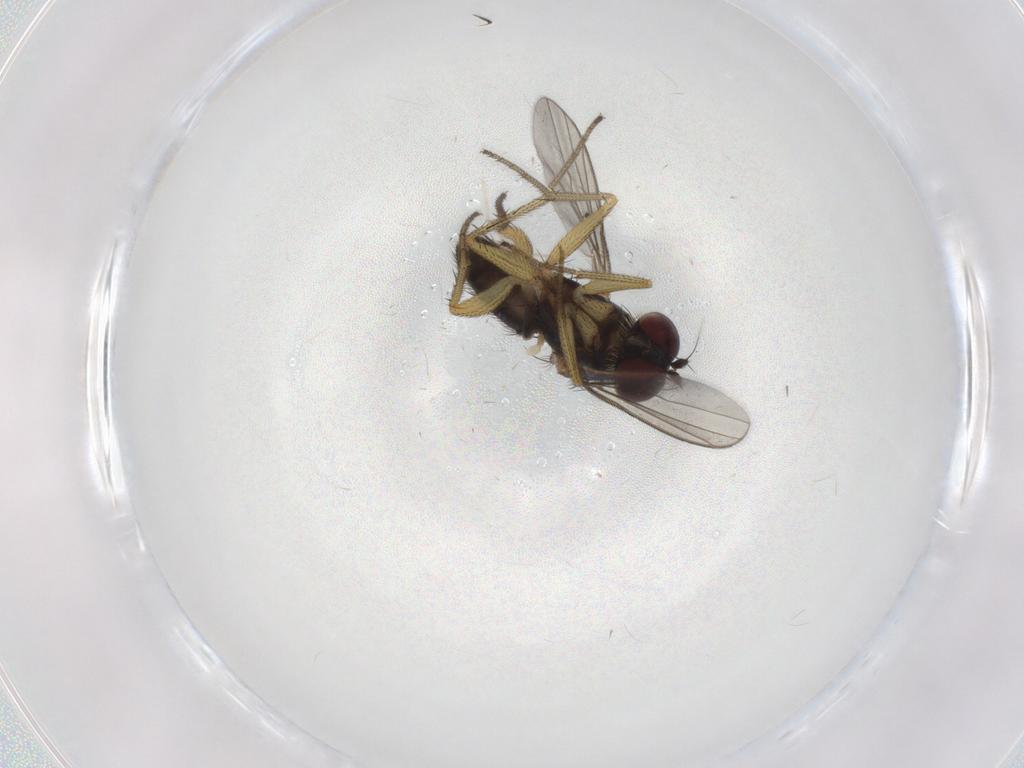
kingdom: Animalia
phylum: Arthropoda
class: Insecta
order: Diptera
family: Dolichopodidae
